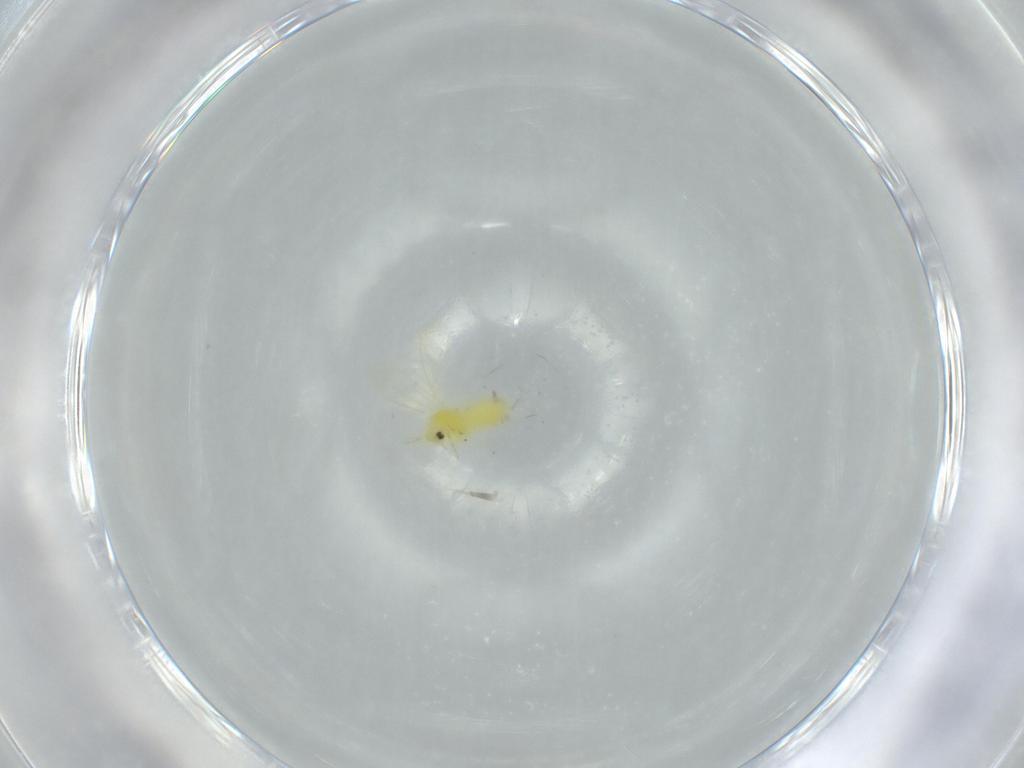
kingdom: Animalia
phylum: Arthropoda
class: Insecta
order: Hemiptera
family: Aleyrodidae
